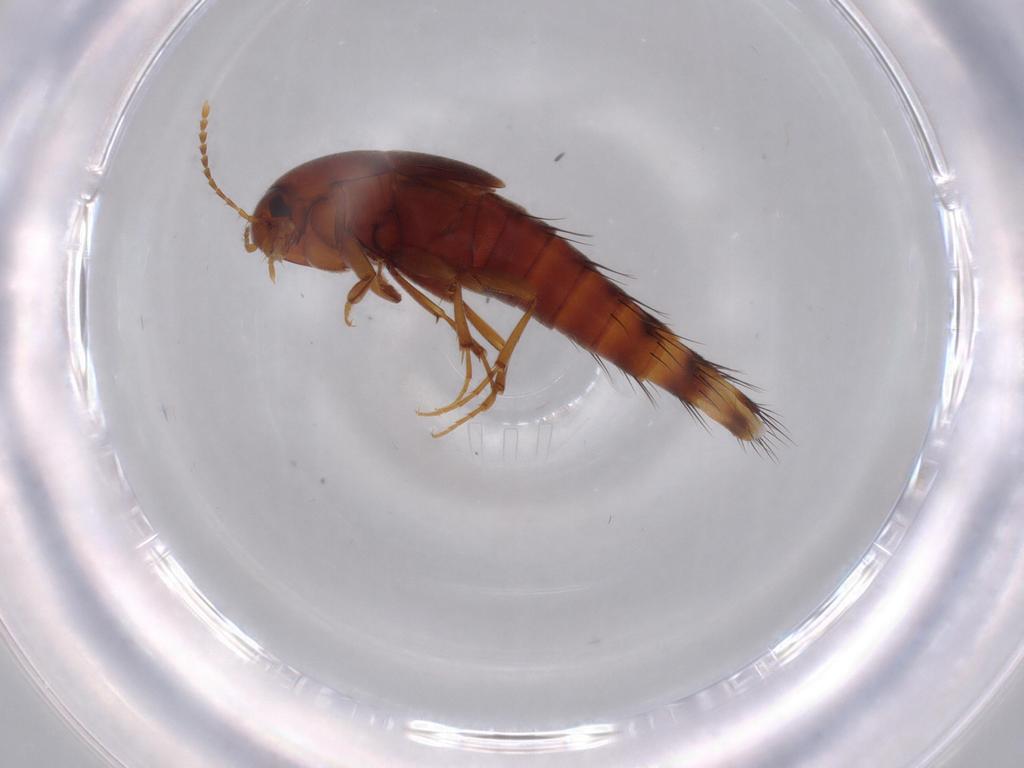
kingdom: Animalia
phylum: Arthropoda
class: Insecta
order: Coleoptera
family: Staphylinidae
